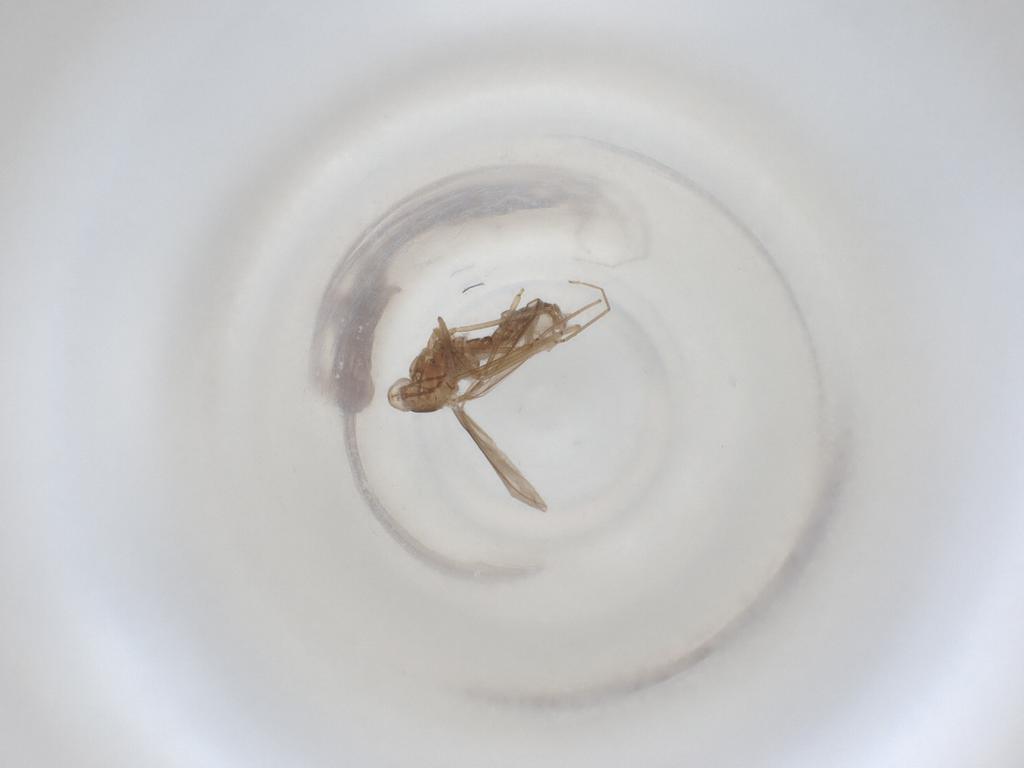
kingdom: Animalia
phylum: Arthropoda
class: Insecta
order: Diptera
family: Cecidomyiidae
